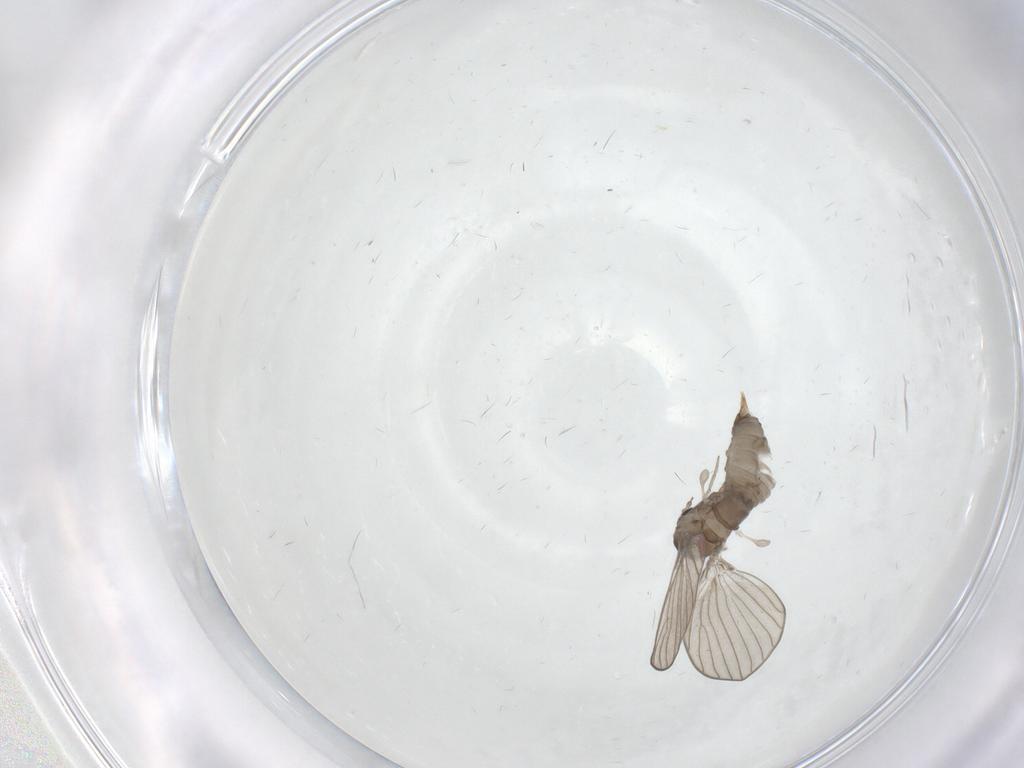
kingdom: Animalia
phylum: Arthropoda
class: Insecta
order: Diptera
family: Psychodidae
